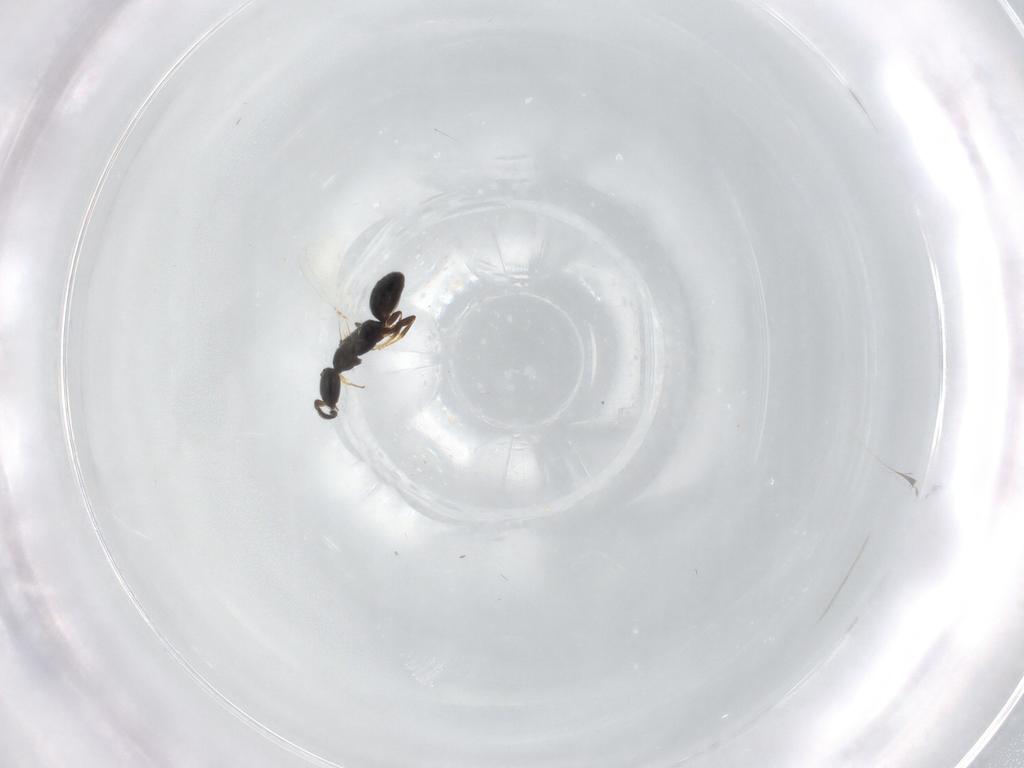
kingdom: Animalia
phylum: Arthropoda
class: Insecta
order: Hymenoptera
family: Bethylidae
